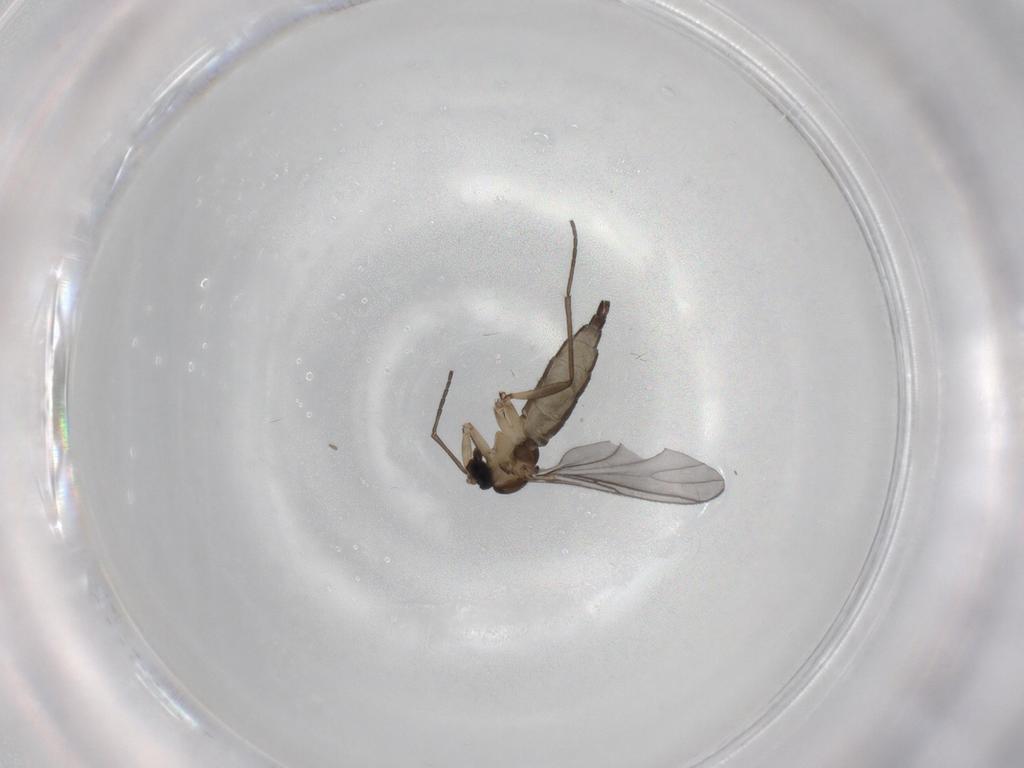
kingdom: Animalia
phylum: Arthropoda
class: Insecta
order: Diptera
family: Sciaridae
